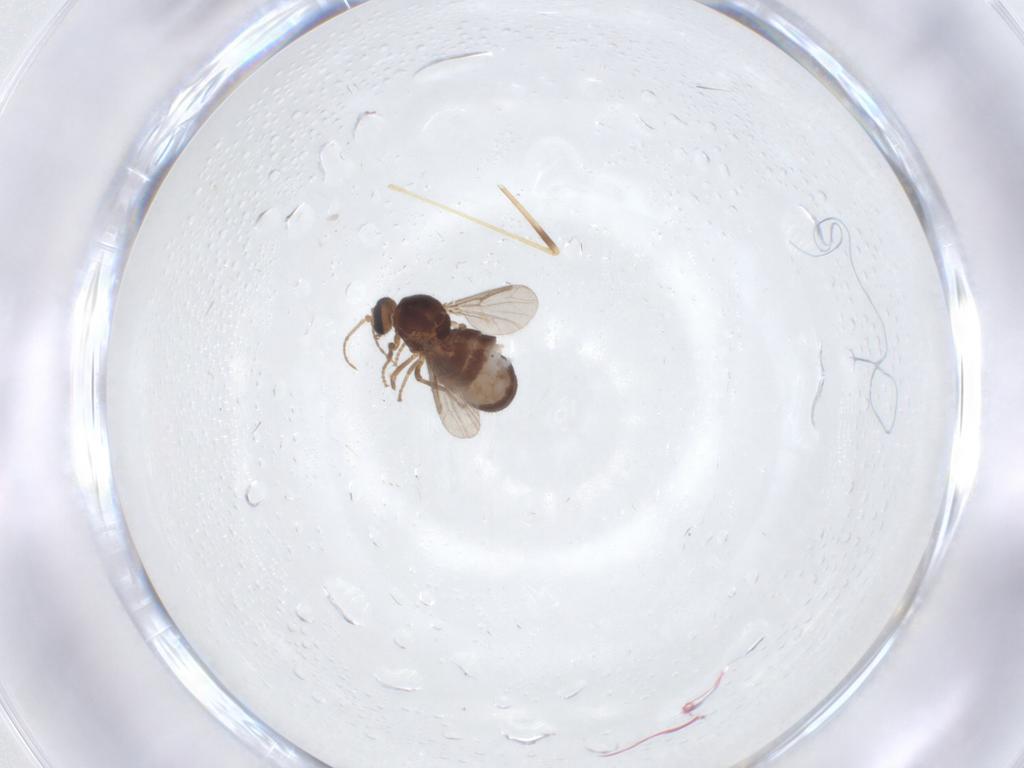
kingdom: Animalia
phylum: Arthropoda
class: Insecta
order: Diptera
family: Ceratopogonidae
